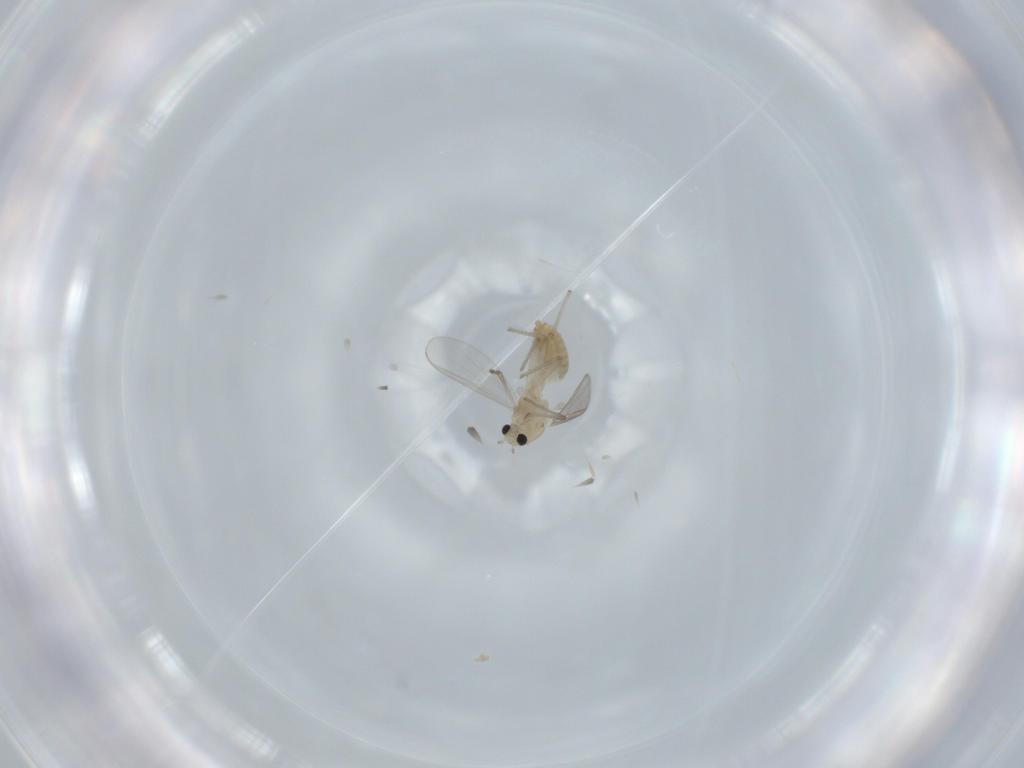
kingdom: Animalia
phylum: Arthropoda
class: Insecta
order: Diptera
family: Chironomidae
